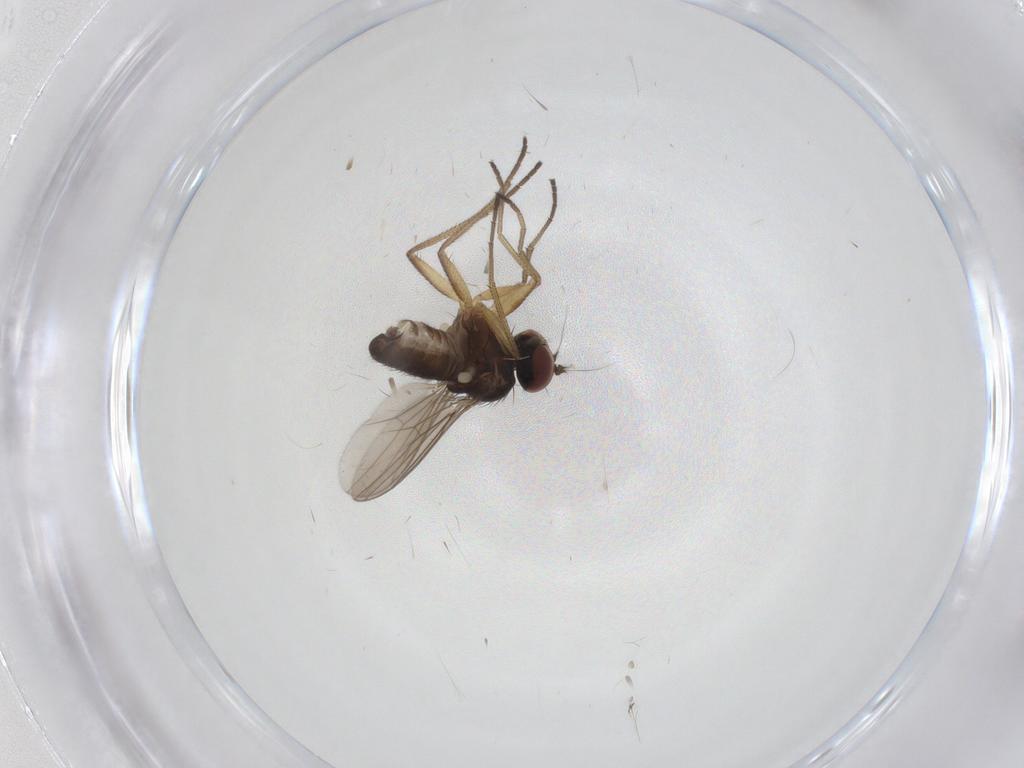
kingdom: Animalia
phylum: Arthropoda
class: Insecta
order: Diptera
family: Dolichopodidae
